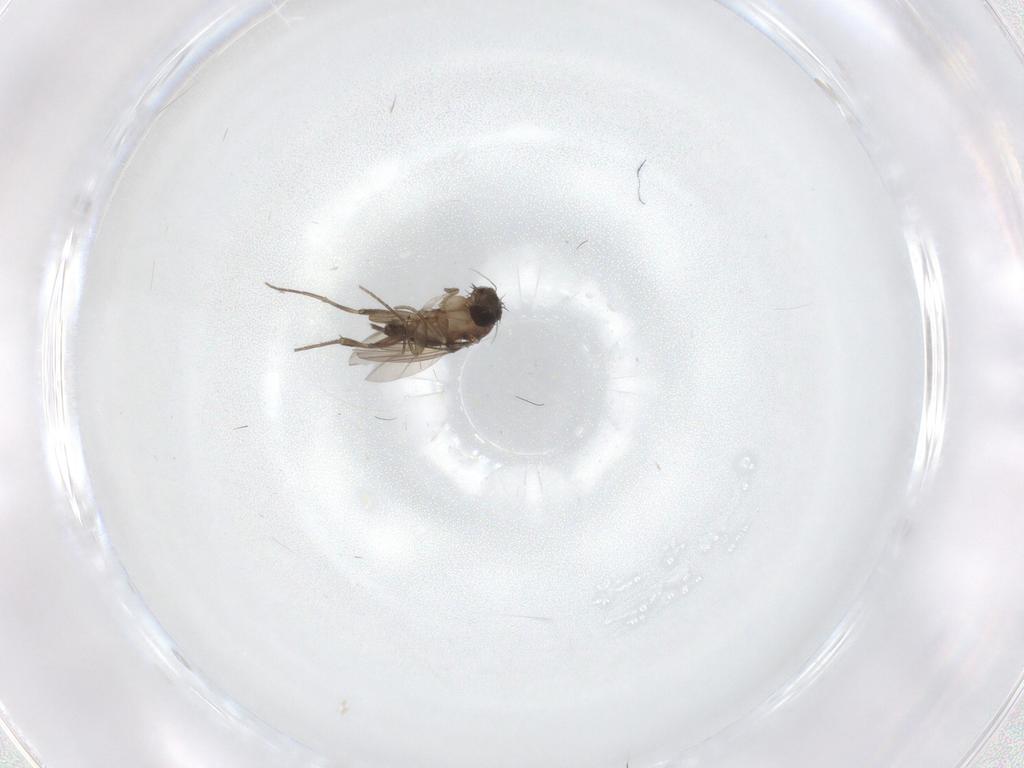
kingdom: Animalia
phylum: Arthropoda
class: Insecta
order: Diptera
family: Phoridae
